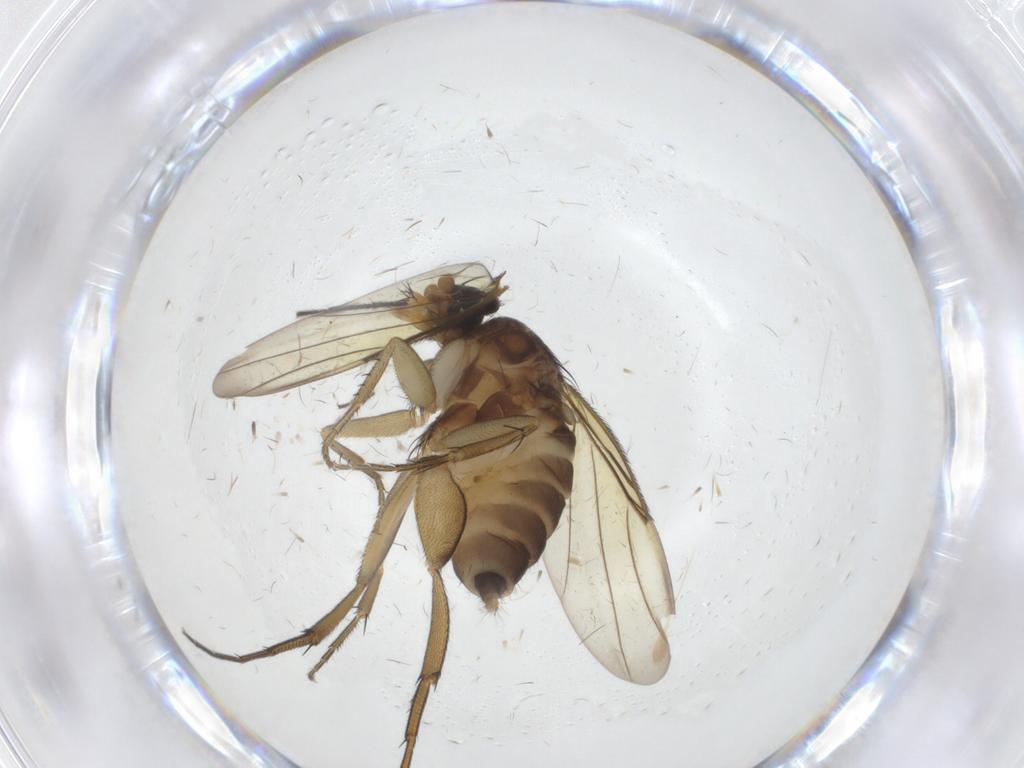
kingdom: Animalia
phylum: Arthropoda
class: Insecta
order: Diptera
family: Phoridae
